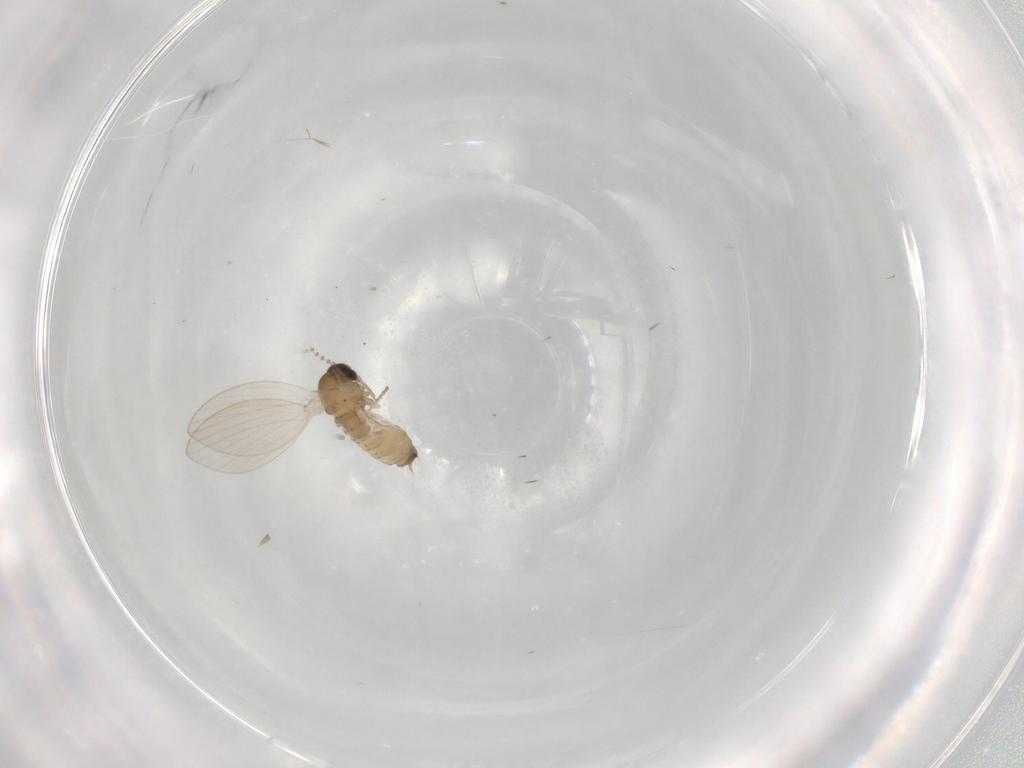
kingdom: Animalia
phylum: Arthropoda
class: Insecta
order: Diptera
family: Psychodidae
